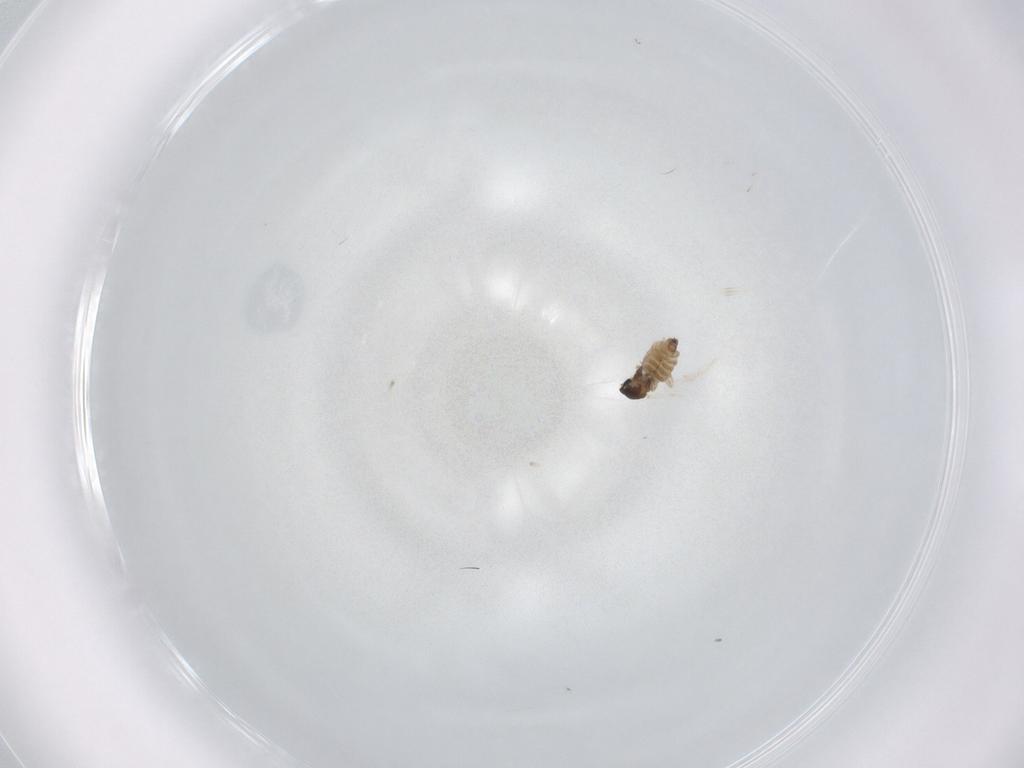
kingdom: Animalia
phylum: Arthropoda
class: Insecta
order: Diptera
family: Cecidomyiidae
